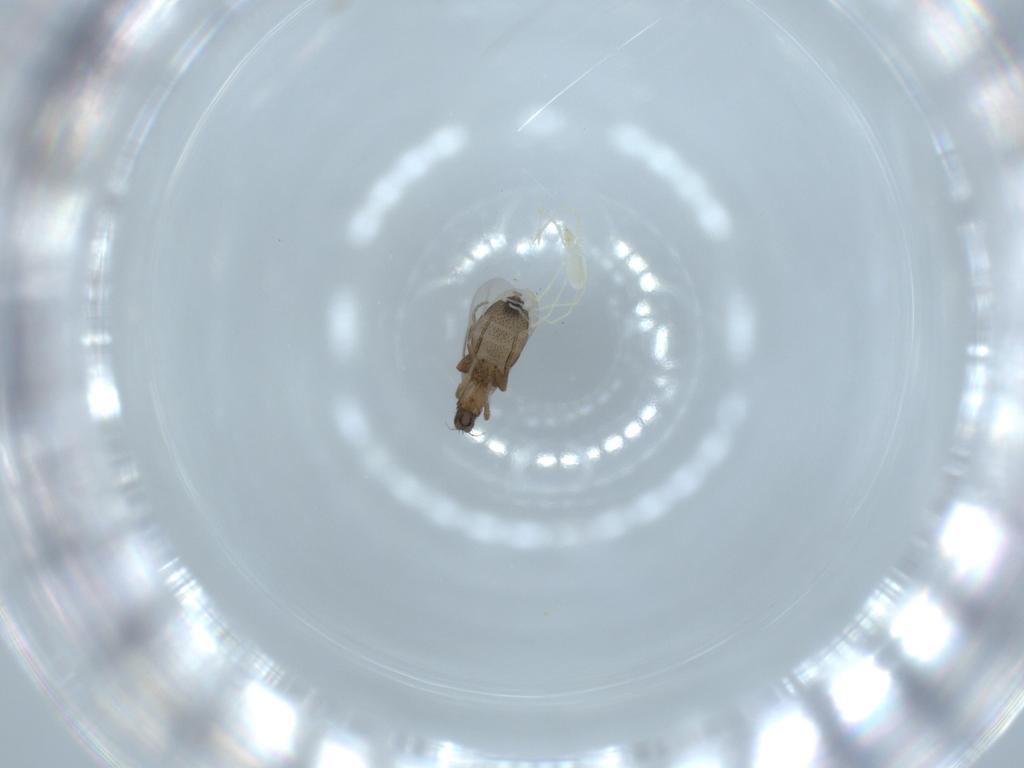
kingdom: Animalia
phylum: Arthropoda
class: Insecta
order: Diptera
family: Phoridae
